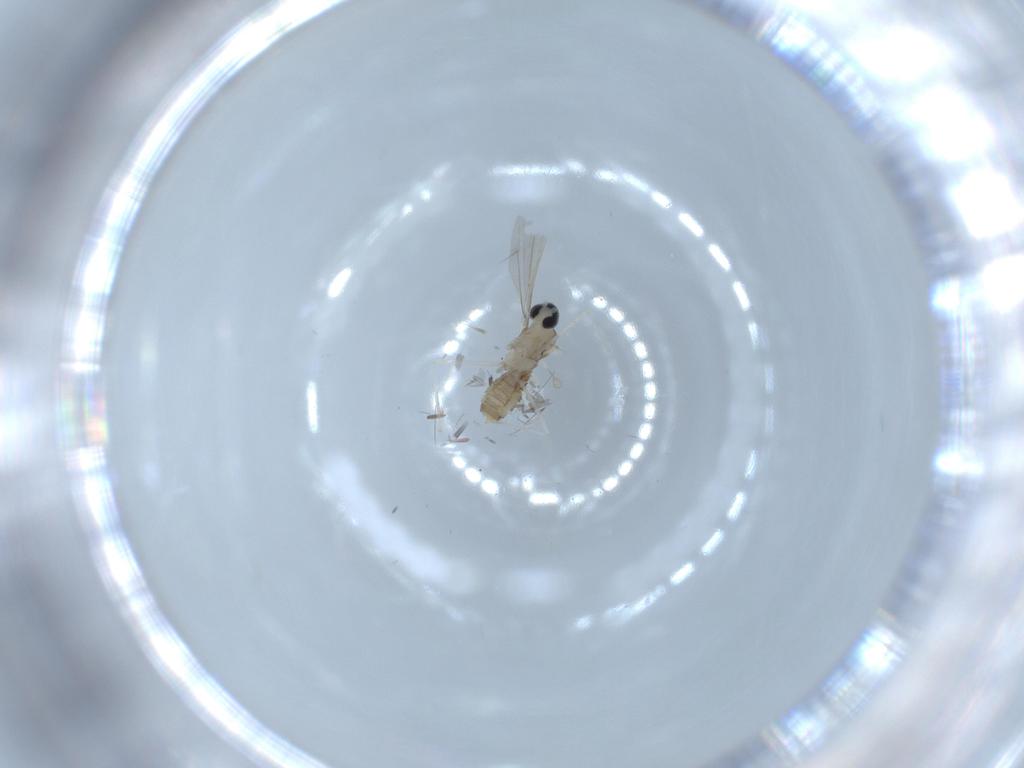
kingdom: Animalia
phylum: Arthropoda
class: Insecta
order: Diptera
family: Cecidomyiidae
